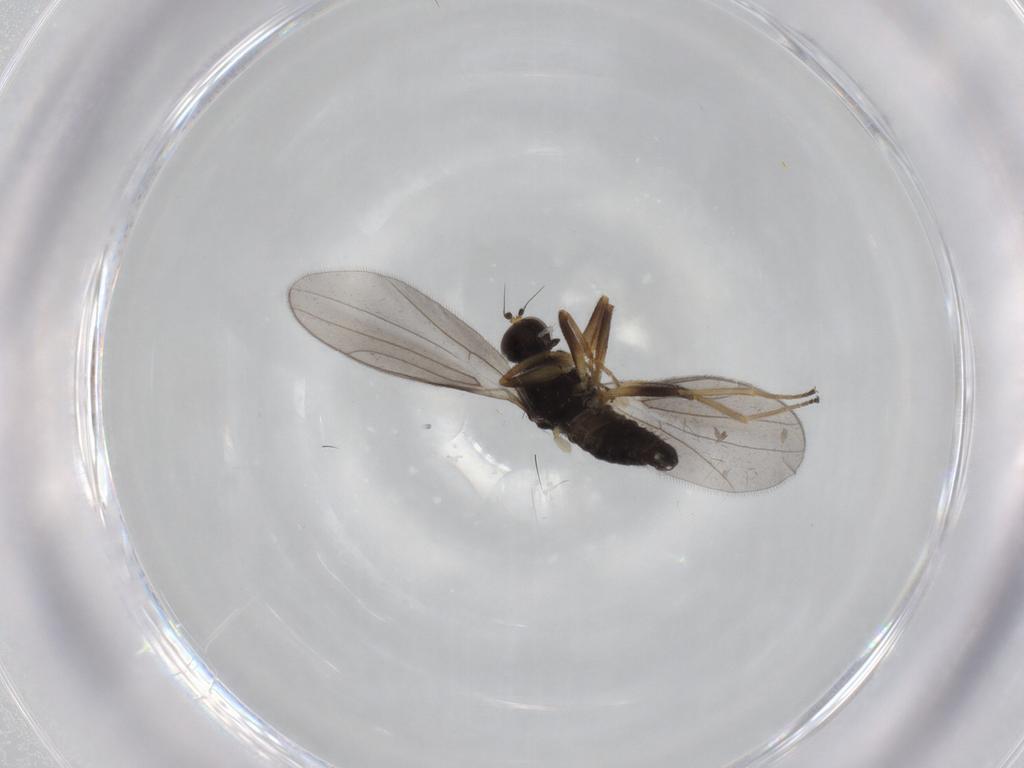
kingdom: Animalia
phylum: Arthropoda
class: Insecta
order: Diptera
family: Hybotidae
